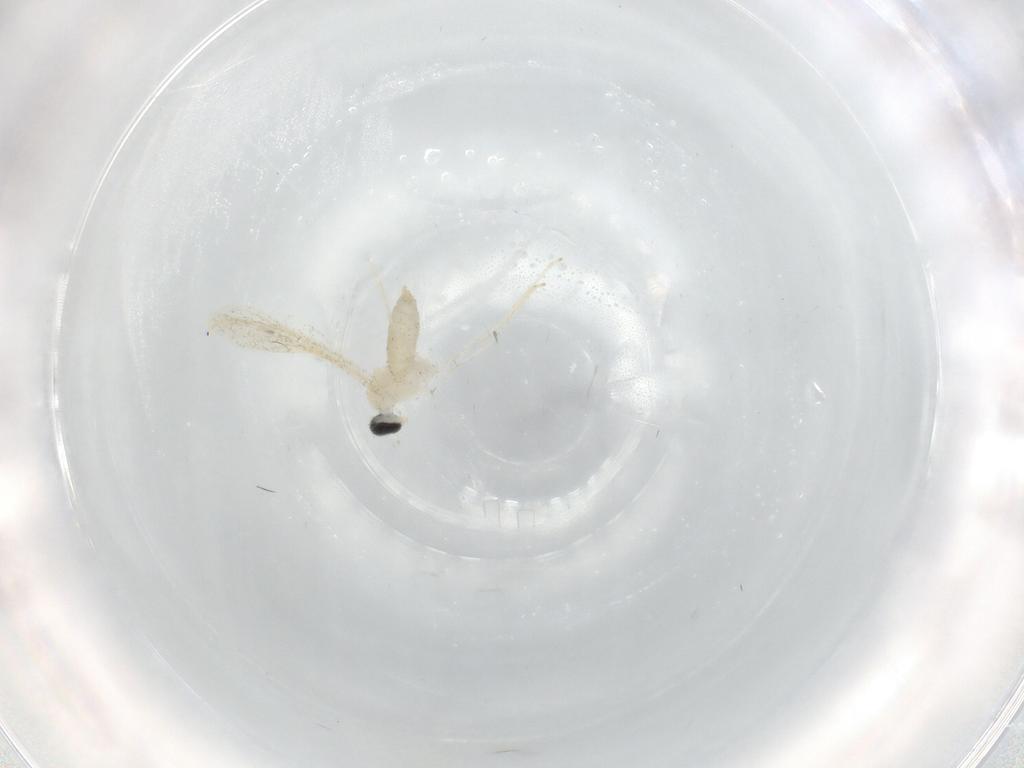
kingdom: Animalia
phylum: Arthropoda
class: Insecta
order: Diptera
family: Cecidomyiidae
